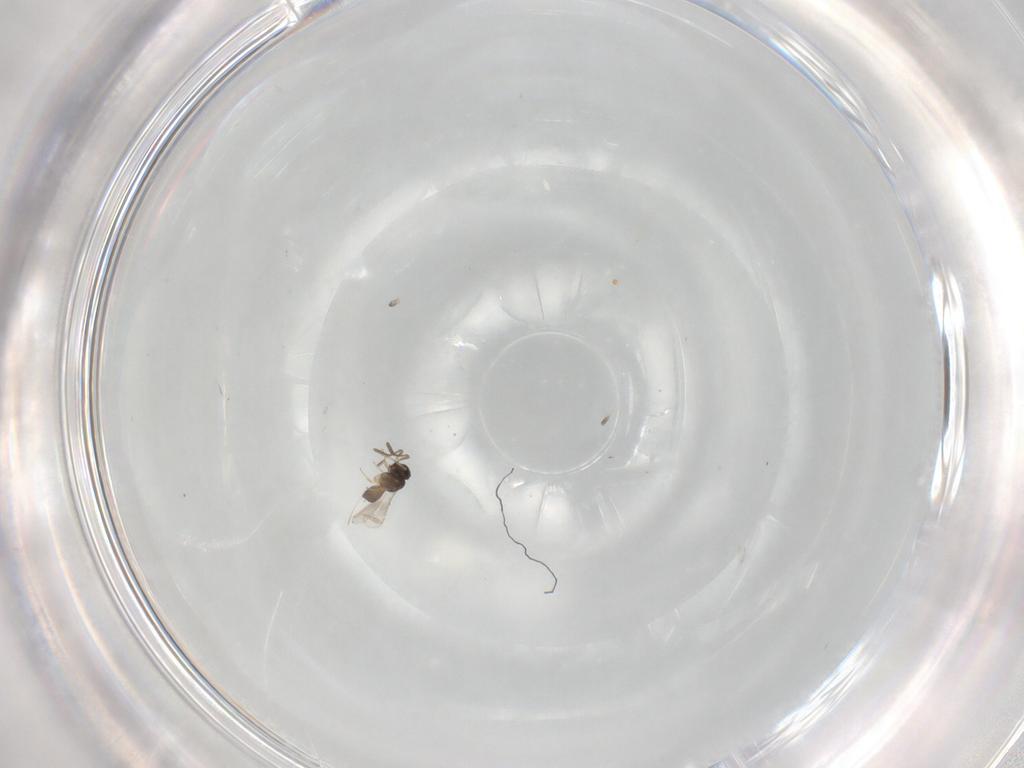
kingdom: Animalia
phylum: Arthropoda
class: Insecta
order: Hymenoptera
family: Scelionidae
